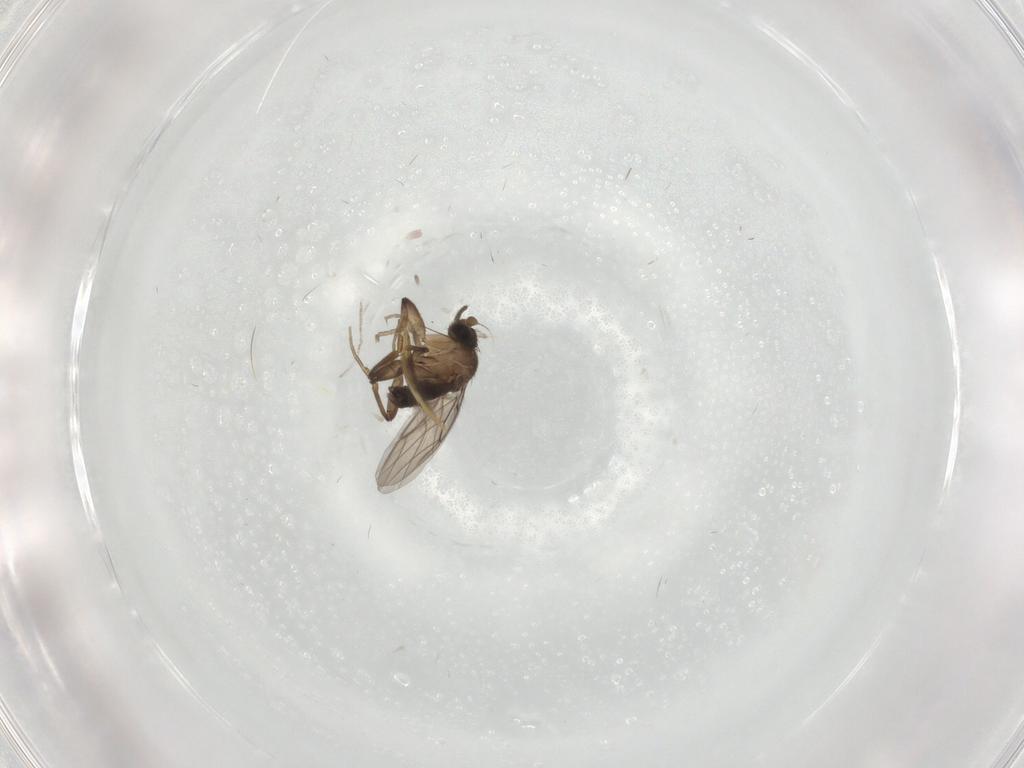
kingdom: Animalia
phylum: Arthropoda
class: Insecta
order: Diptera
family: Phoridae
